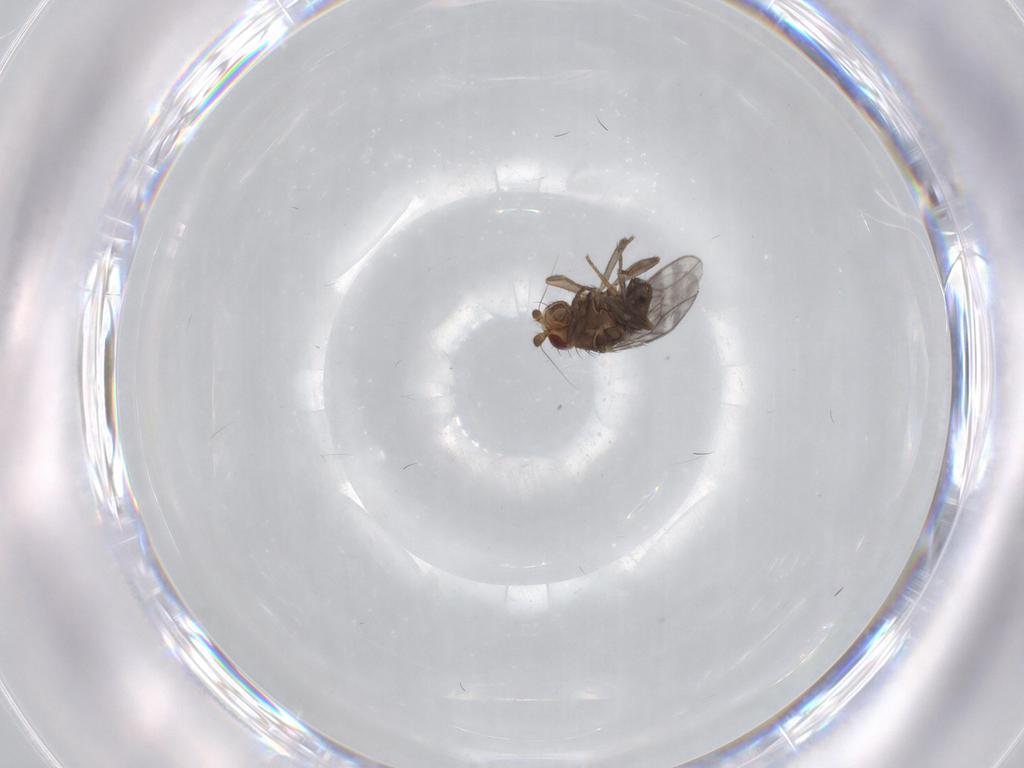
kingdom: Animalia
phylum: Arthropoda
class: Insecta
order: Diptera
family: Sphaeroceridae
